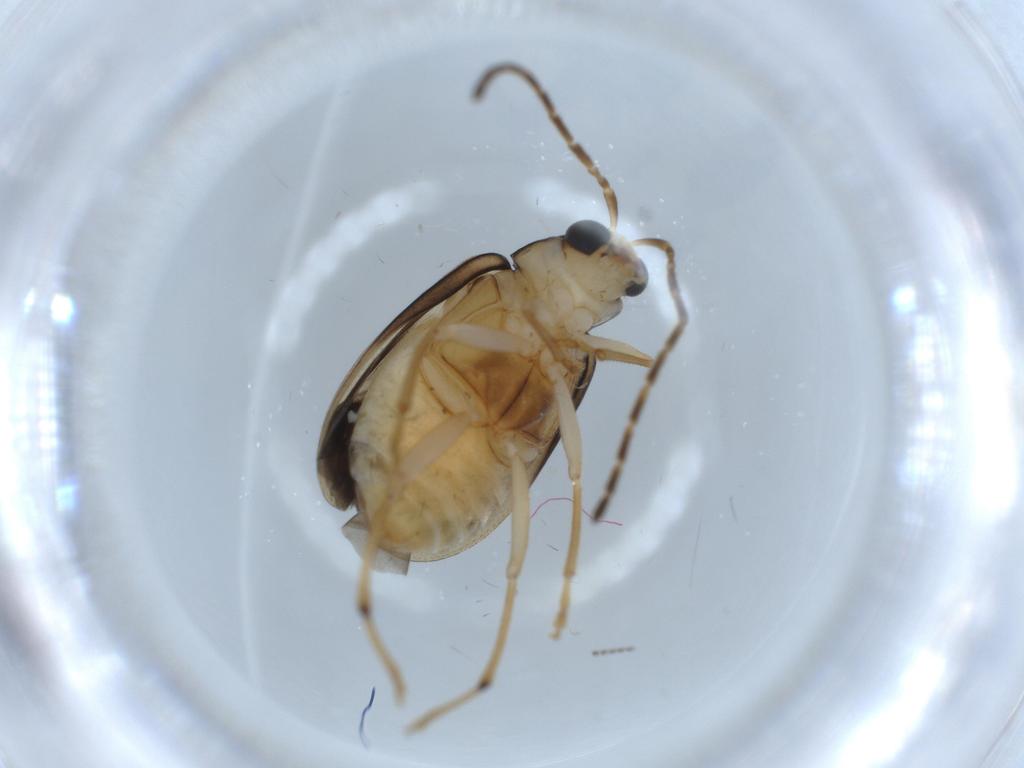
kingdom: Animalia
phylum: Arthropoda
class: Insecta
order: Coleoptera
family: Chrysomelidae
